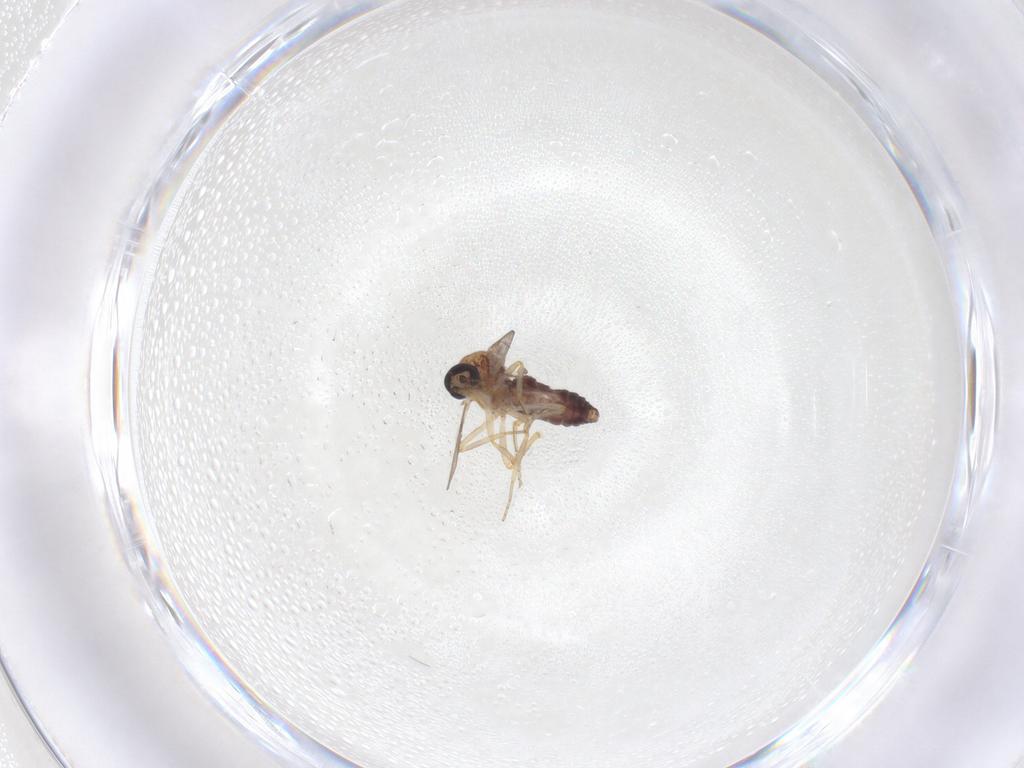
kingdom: Animalia
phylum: Arthropoda
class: Insecta
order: Diptera
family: Ceratopogonidae
